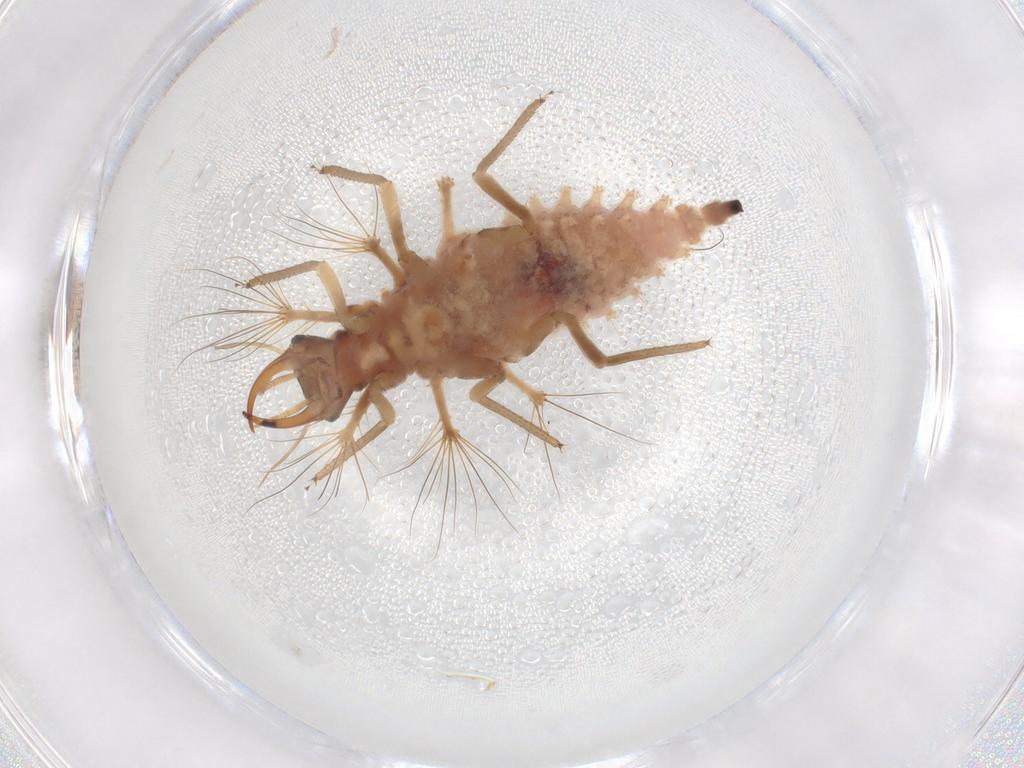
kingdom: Animalia
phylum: Arthropoda
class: Insecta
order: Neuroptera
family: Chrysopidae
